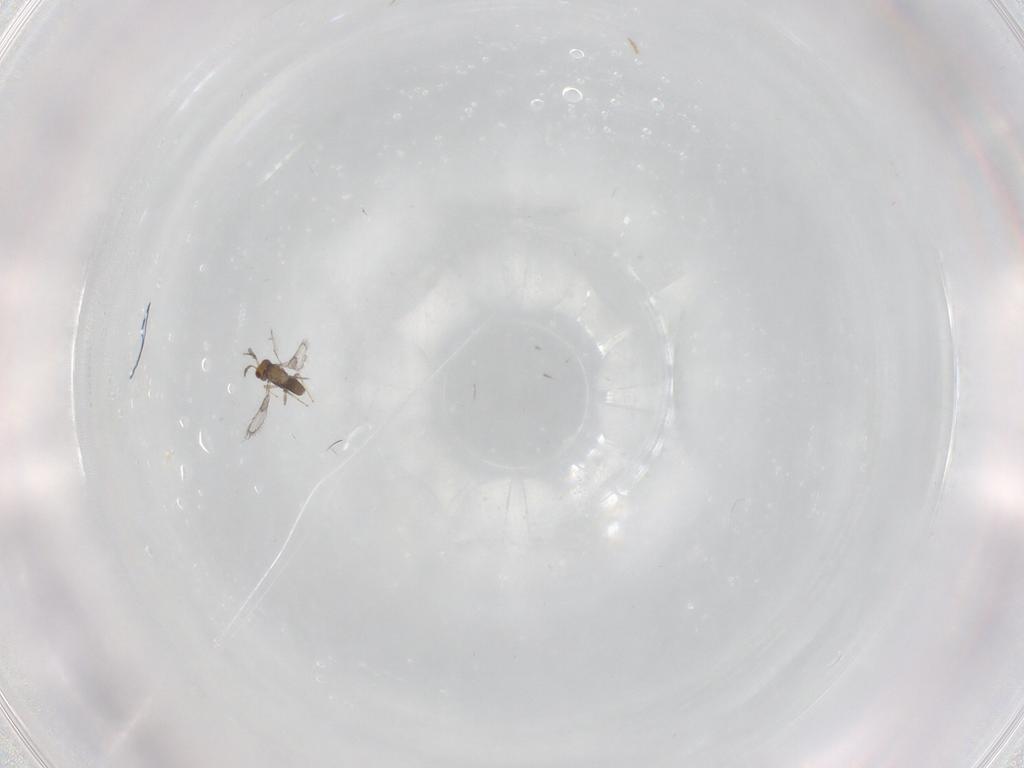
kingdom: Animalia
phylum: Arthropoda
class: Insecta
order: Hymenoptera
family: Trichogrammatidae
